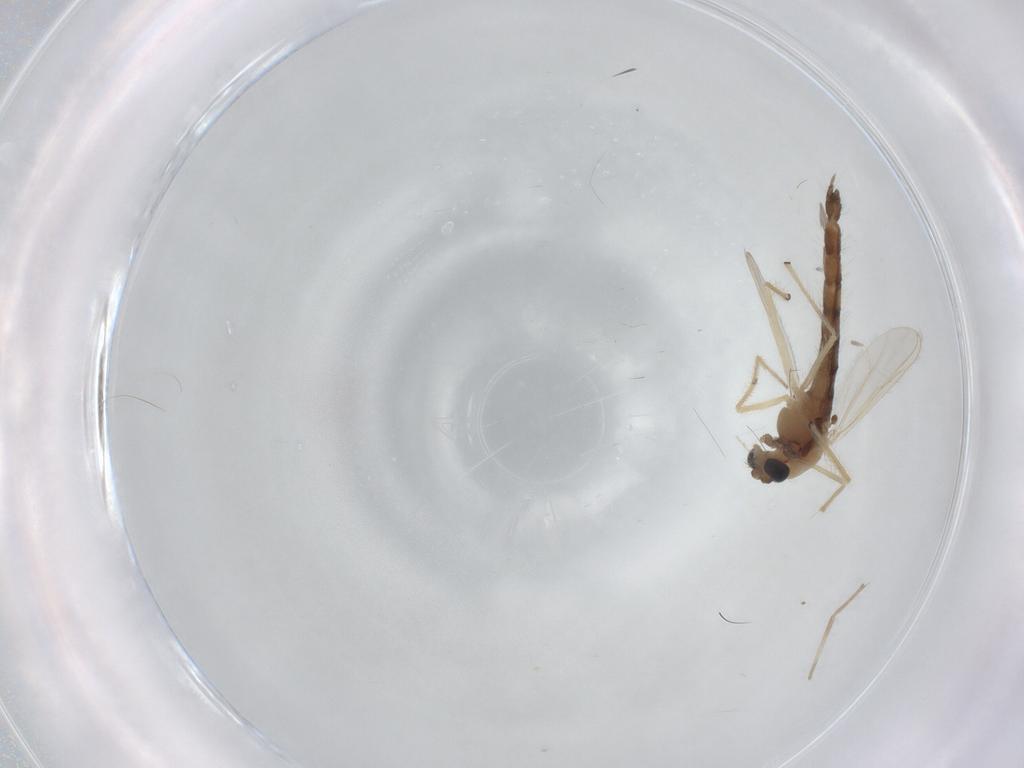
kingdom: Animalia
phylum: Arthropoda
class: Insecta
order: Diptera
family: Chironomidae
